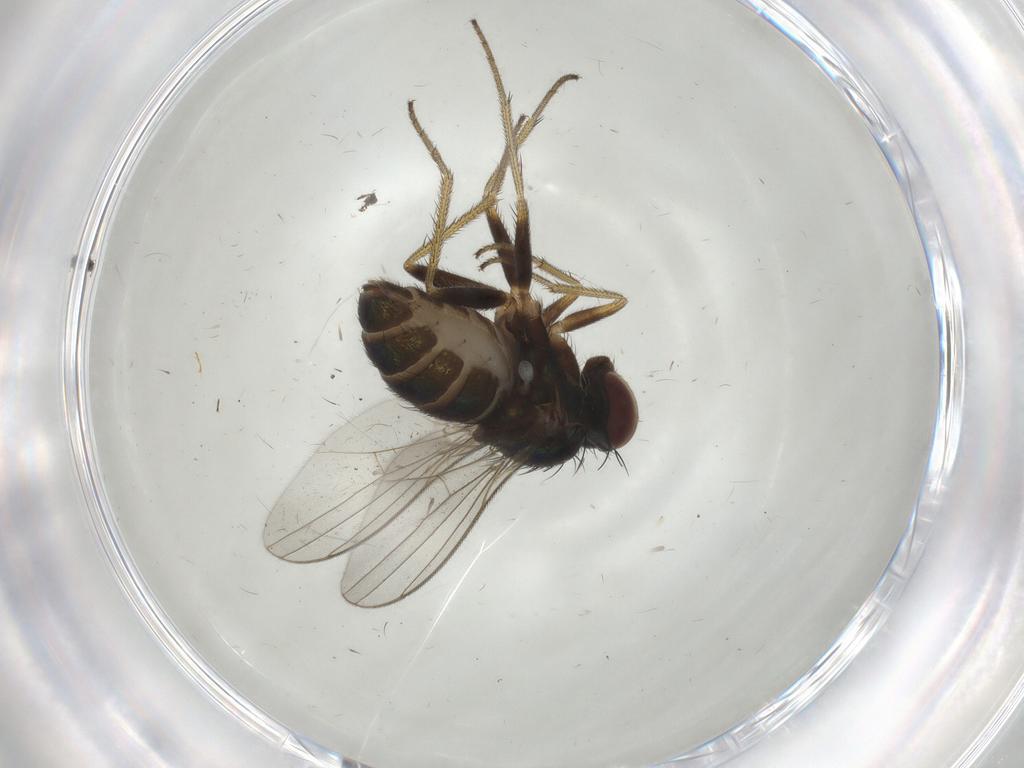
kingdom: Animalia
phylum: Arthropoda
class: Insecta
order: Diptera
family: Dolichopodidae
